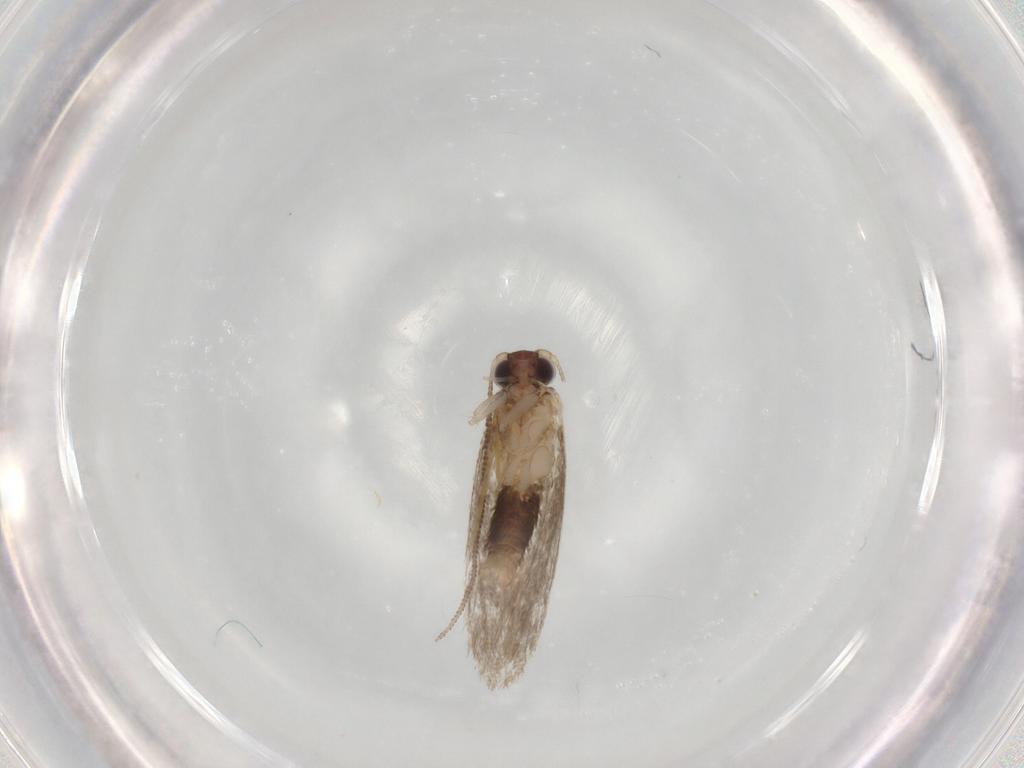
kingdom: Animalia
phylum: Arthropoda
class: Insecta
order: Lepidoptera
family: Tineidae
